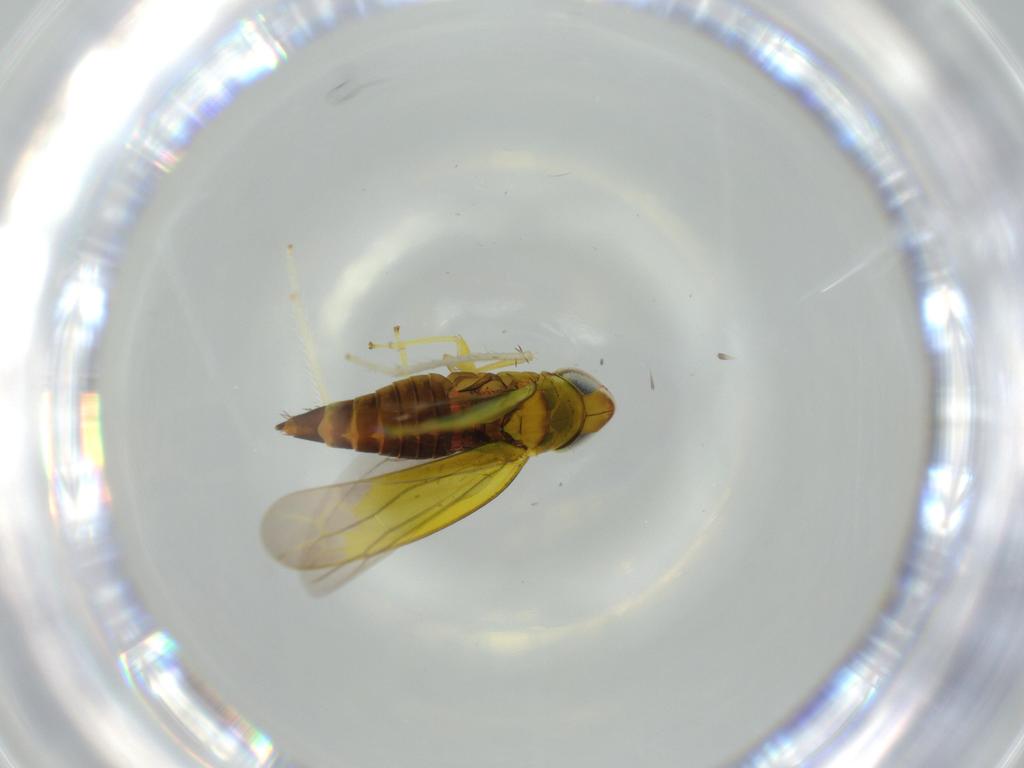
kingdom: Animalia
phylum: Arthropoda
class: Insecta
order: Hemiptera
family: Cicadellidae
